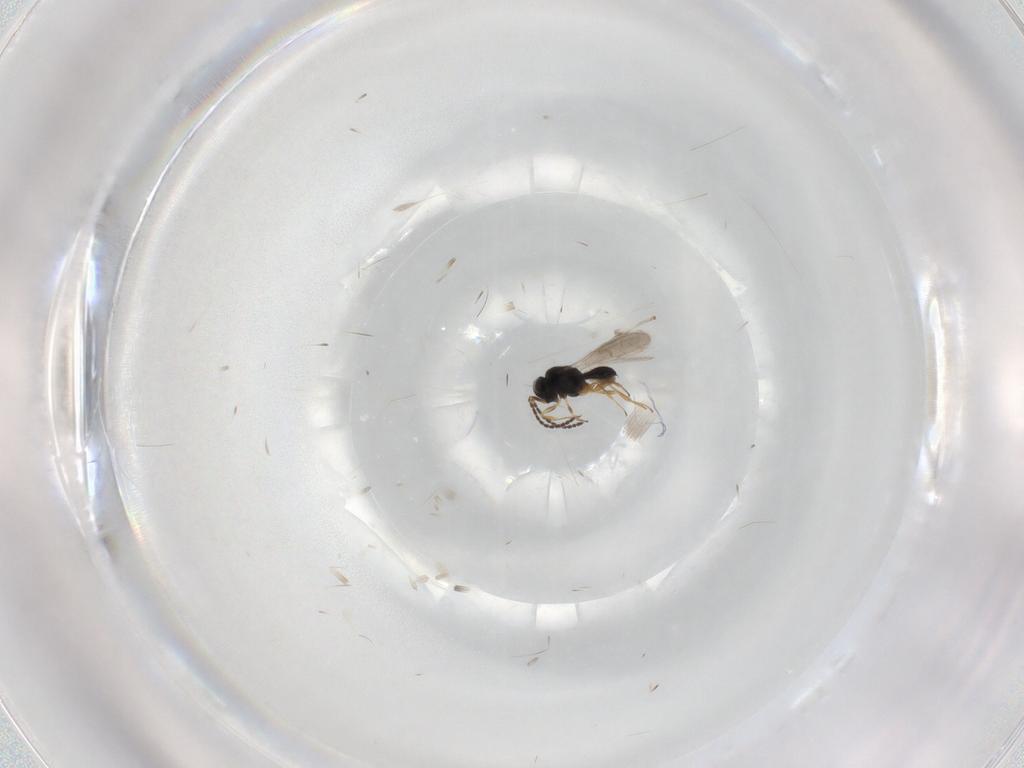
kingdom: Animalia
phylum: Arthropoda
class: Insecta
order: Hymenoptera
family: Scelionidae
